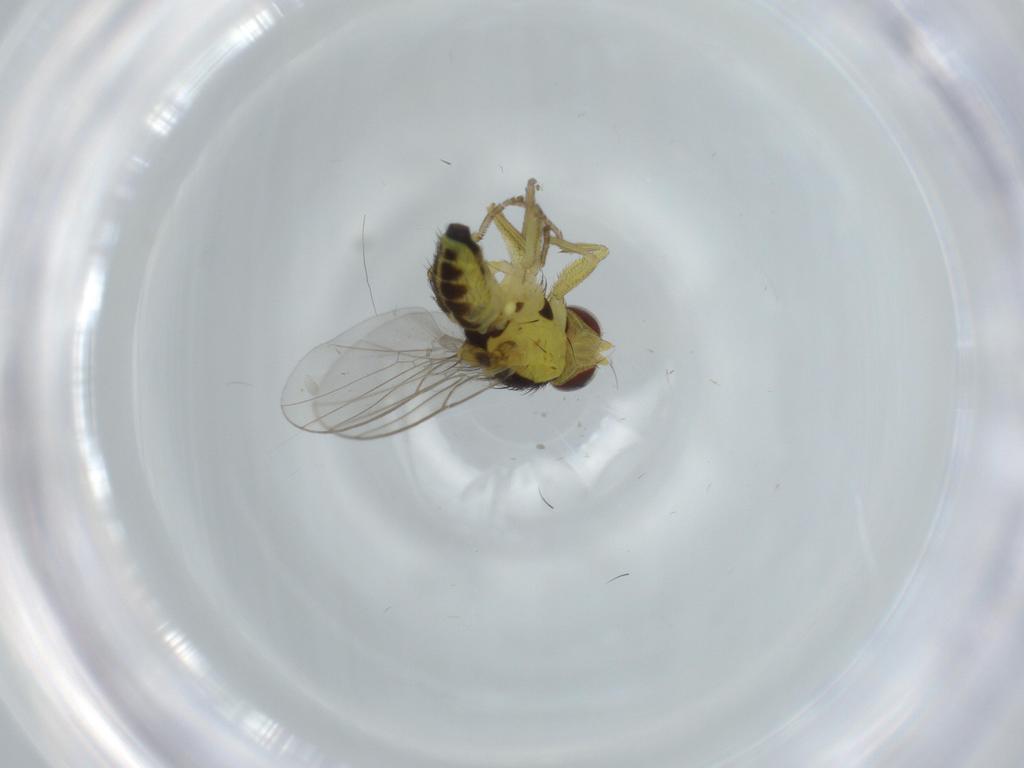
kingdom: Animalia
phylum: Arthropoda
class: Insecta
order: Diptera
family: Agromyzidae
